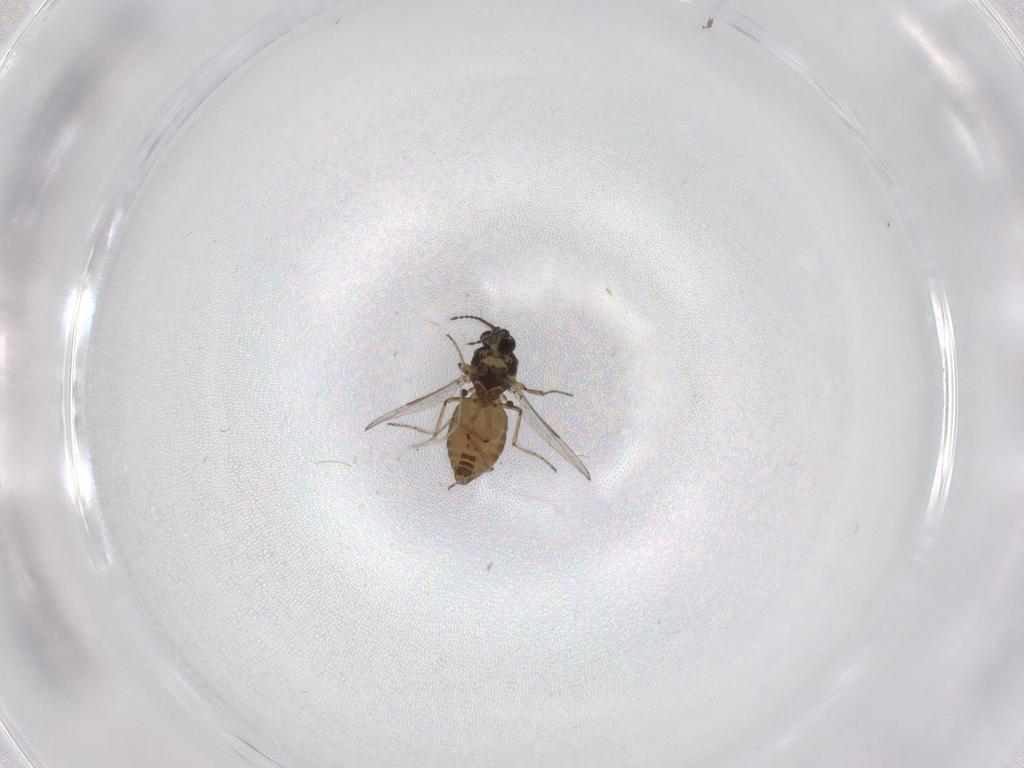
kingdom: Animalia
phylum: Arthropoda
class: Insecta
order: Diptera
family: Ceratopogonidae
